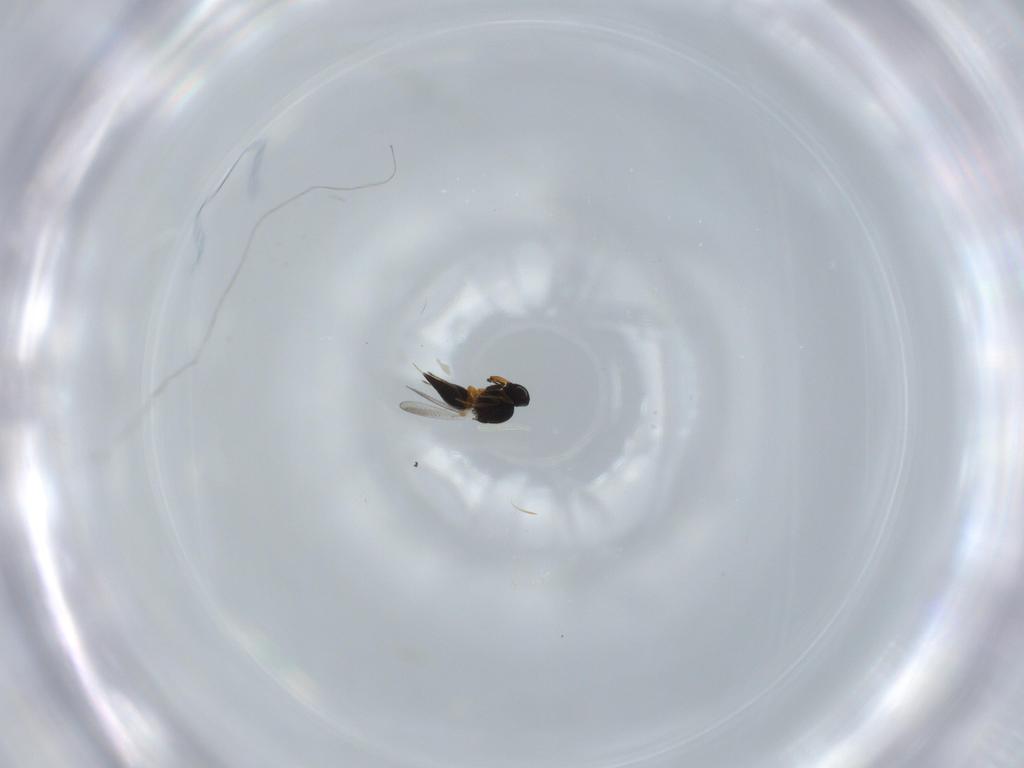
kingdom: Animalia
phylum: Arthropoda
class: Insecta
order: Hymenoptera
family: Platygastridae
